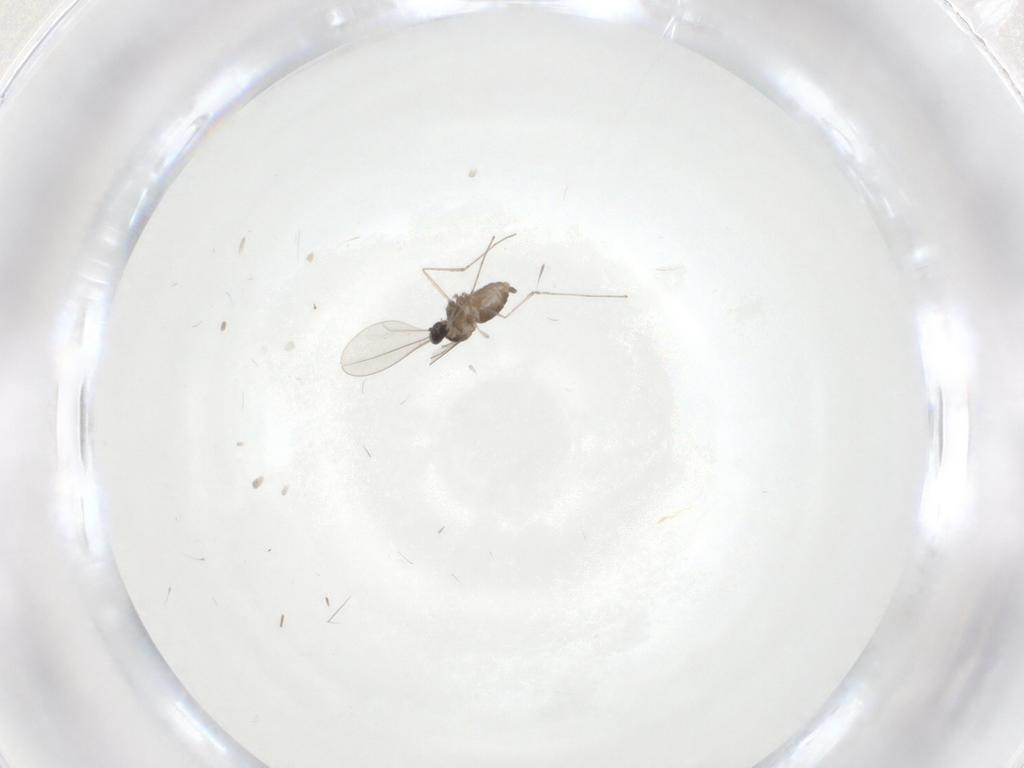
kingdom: Animalia
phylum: Arthropoda
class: Insecta
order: Diptera
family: Cecidomyiidae
